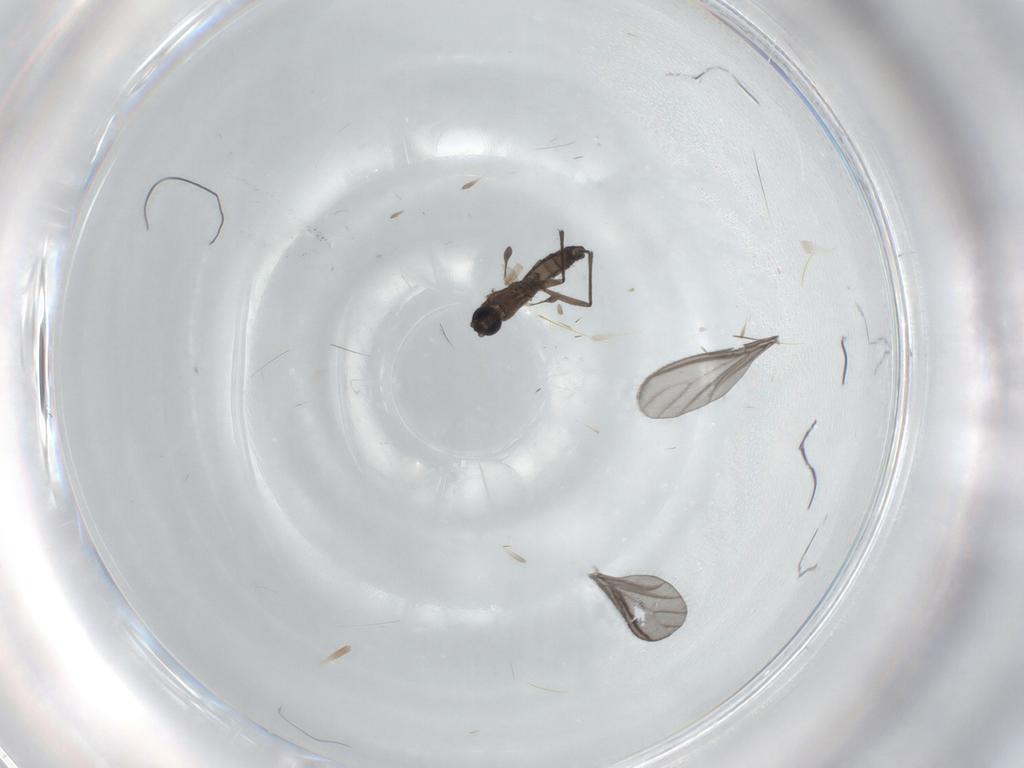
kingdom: Animalia
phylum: Arthropoda
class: Insecta
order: Diptera
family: Sciaridae
